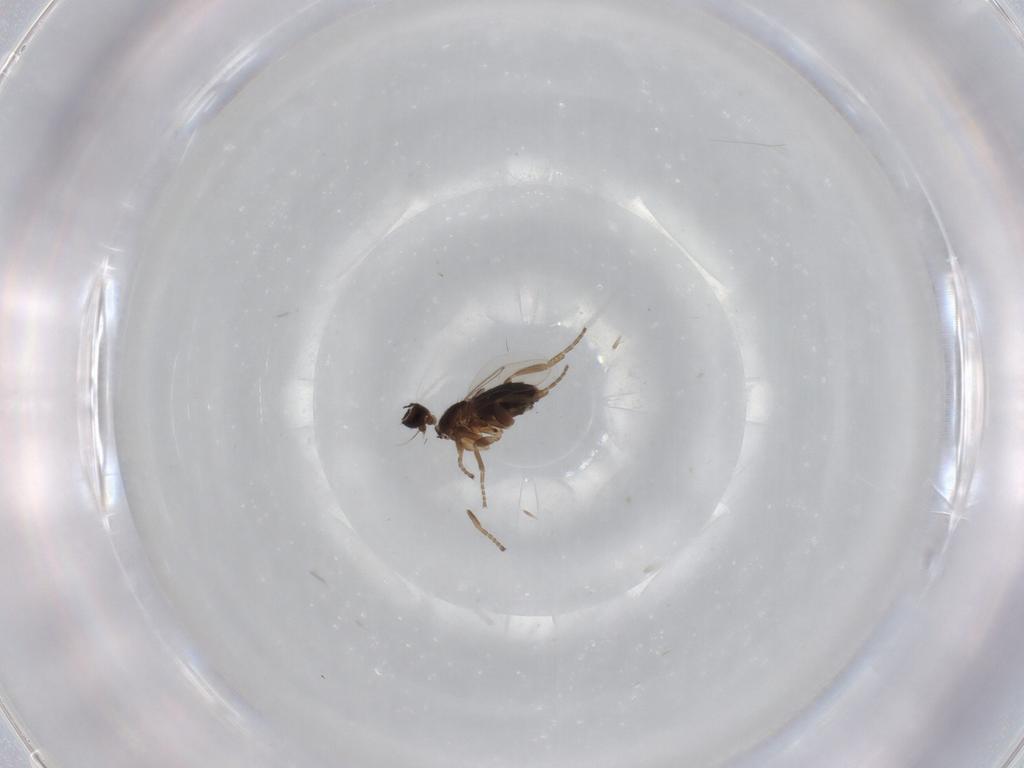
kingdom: Animalia
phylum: Arthropoda
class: Insecta
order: Diptera
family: Phoridae
